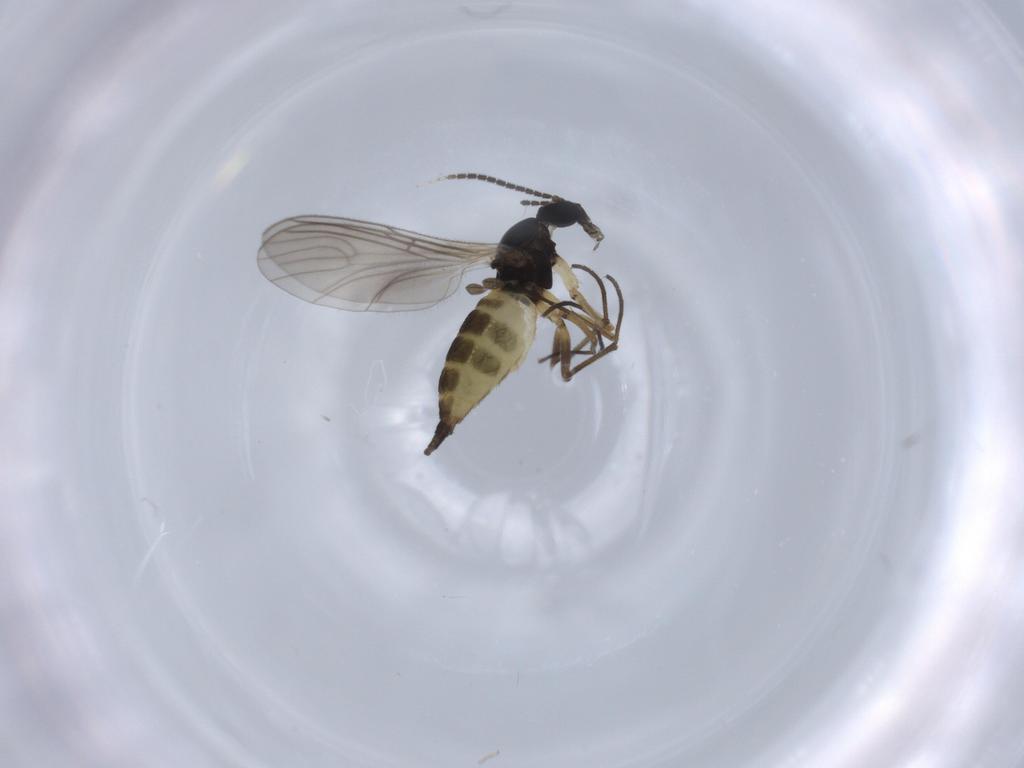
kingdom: Animalia
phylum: Arthropoda
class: Insecta
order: Diptera
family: Sciaridae
